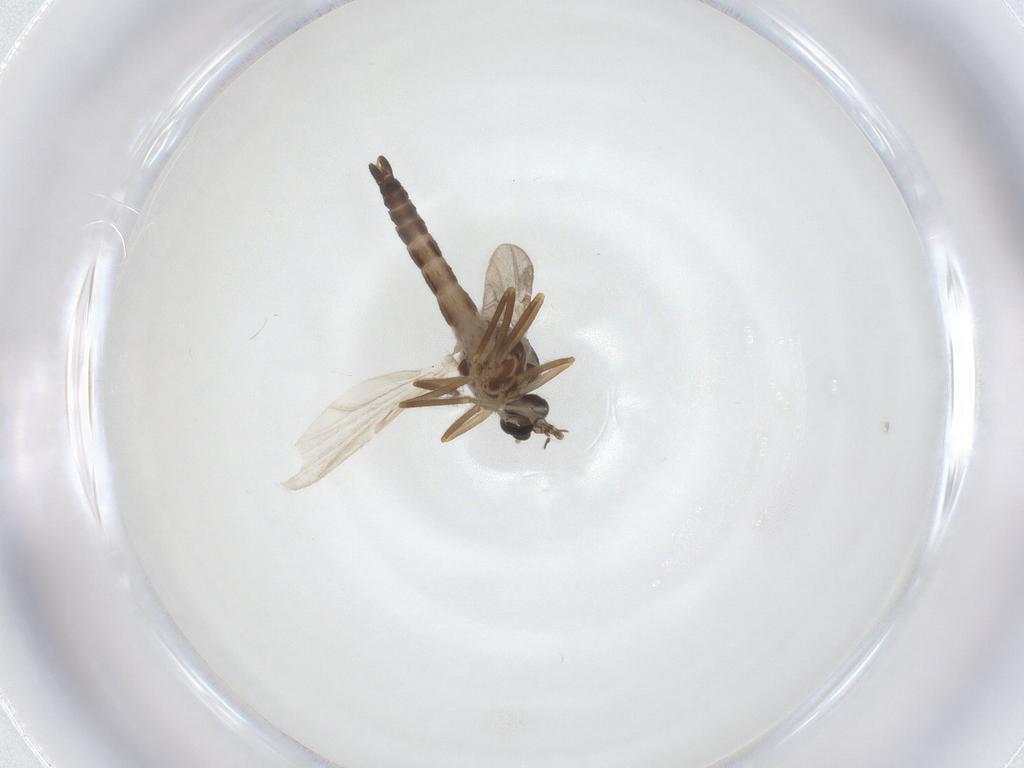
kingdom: Animalia
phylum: Arthropoda
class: Insecta
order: Diptera
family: Ceratopogonidae
